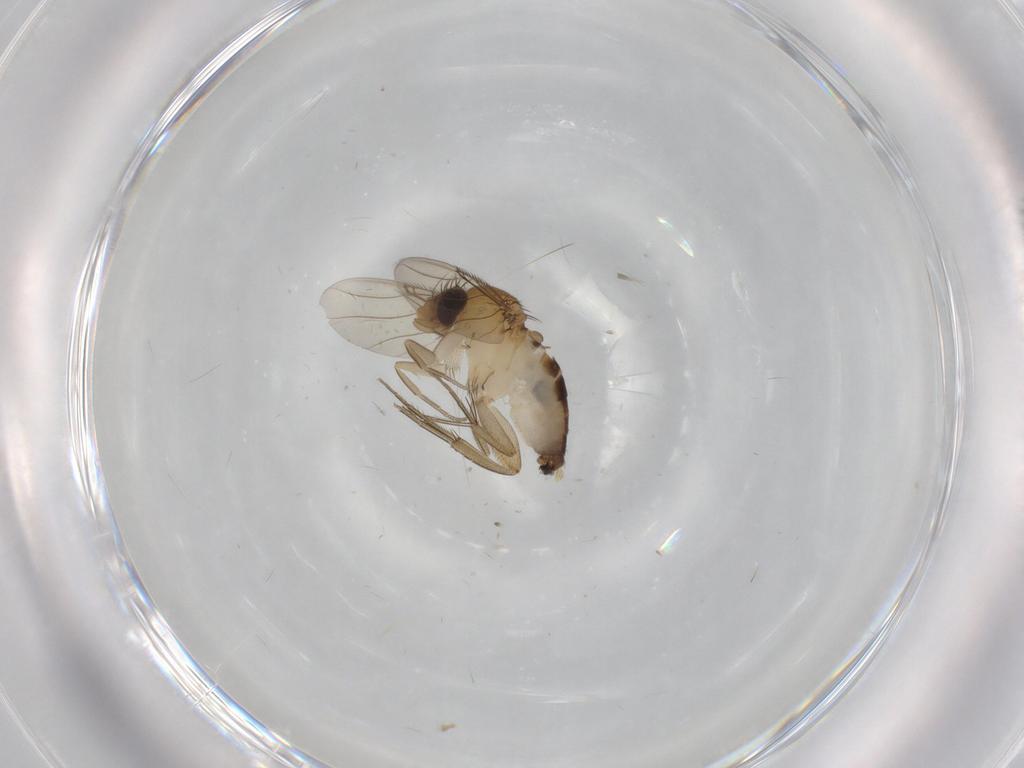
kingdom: Animalia
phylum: Arthropoda
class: Insecta
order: Diptera
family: Phoridae
